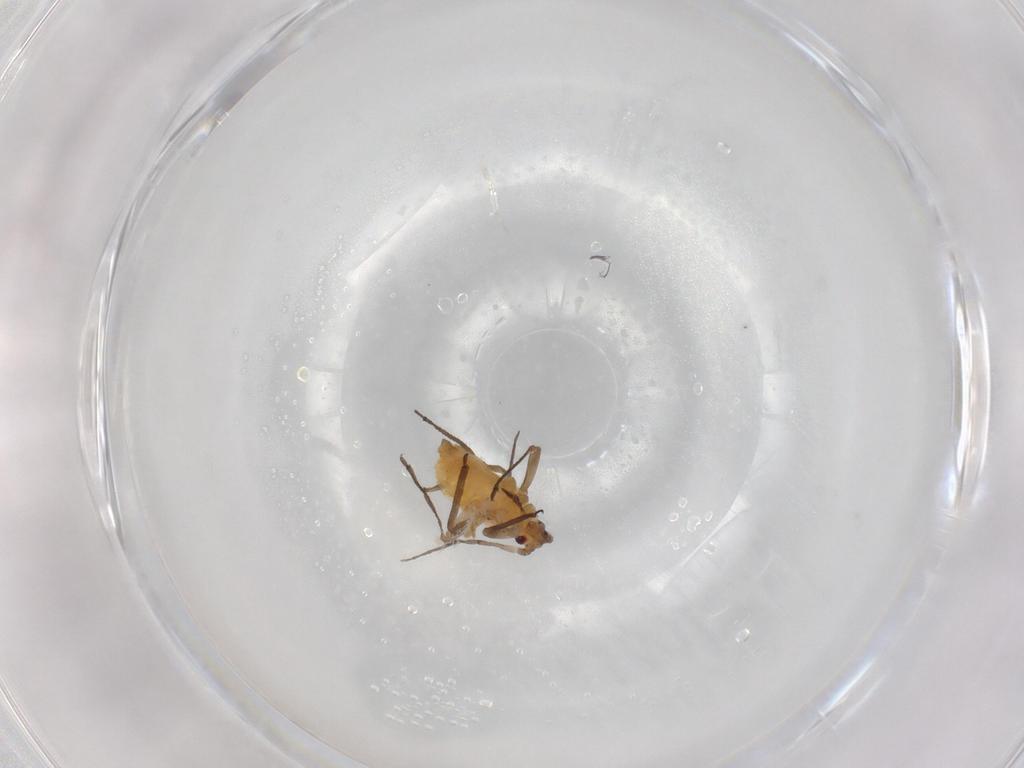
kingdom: Animalia
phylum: Arthropoda
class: Insecta
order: Hemiptera
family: Aphididae
